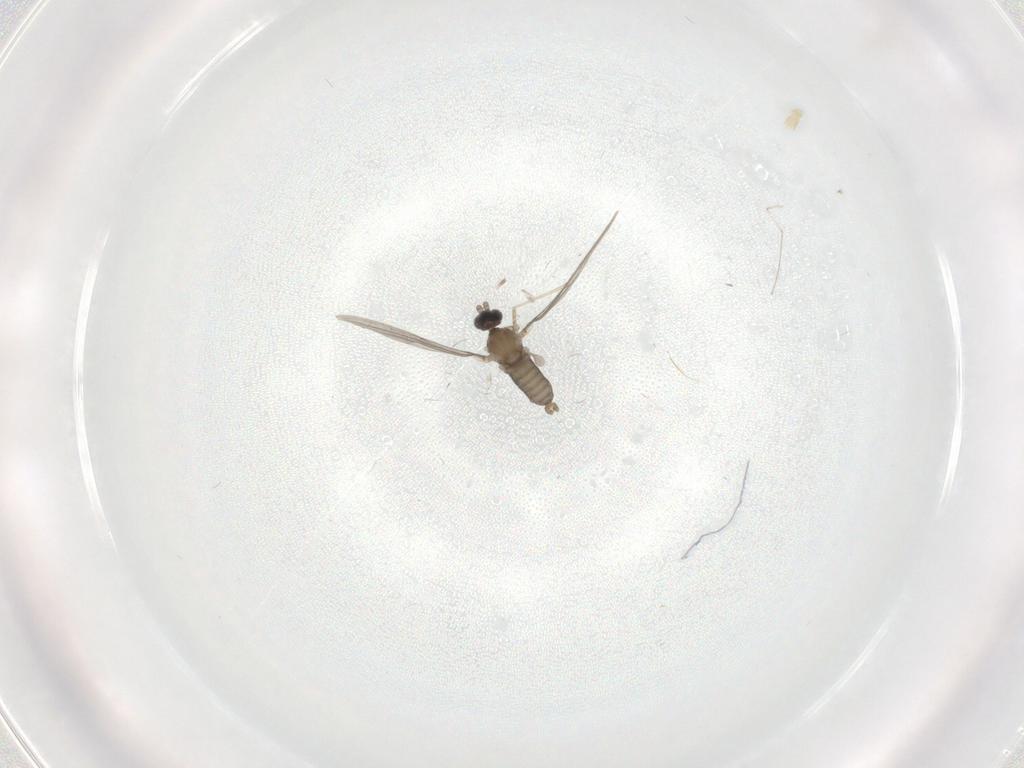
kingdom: Animalia
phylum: Arthropoda
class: Insecta
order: Diptera
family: Cecidomyiidae
